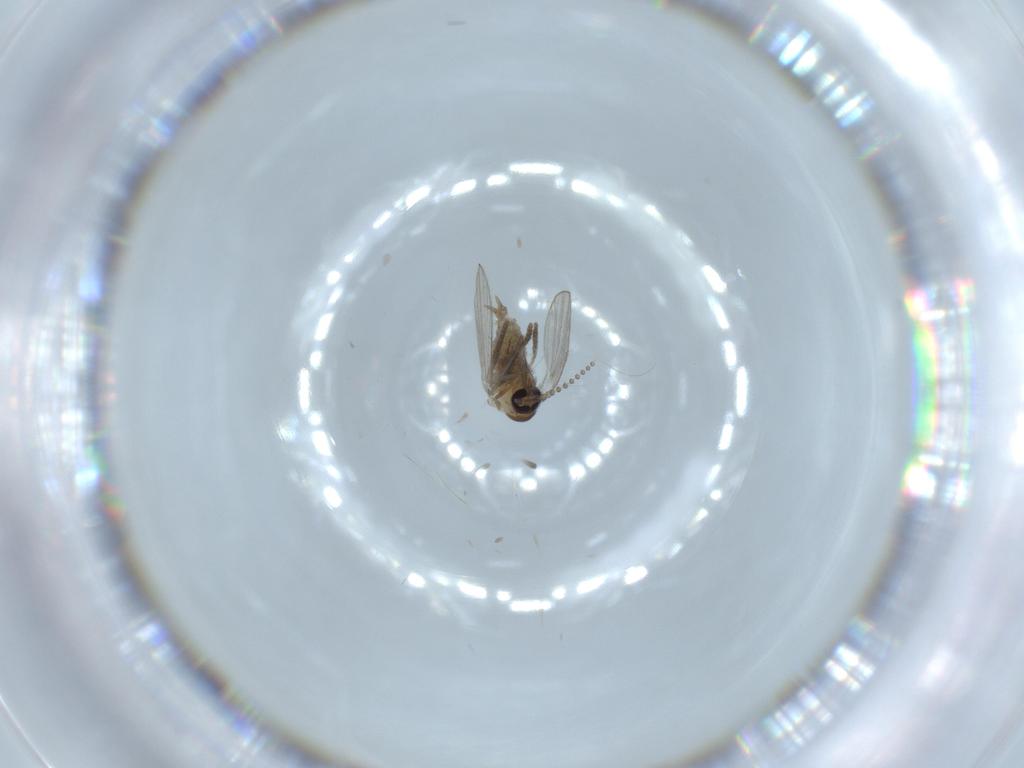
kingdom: Animalia
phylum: Arthropoda
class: Insecta
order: Diptera
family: Psychodidae
